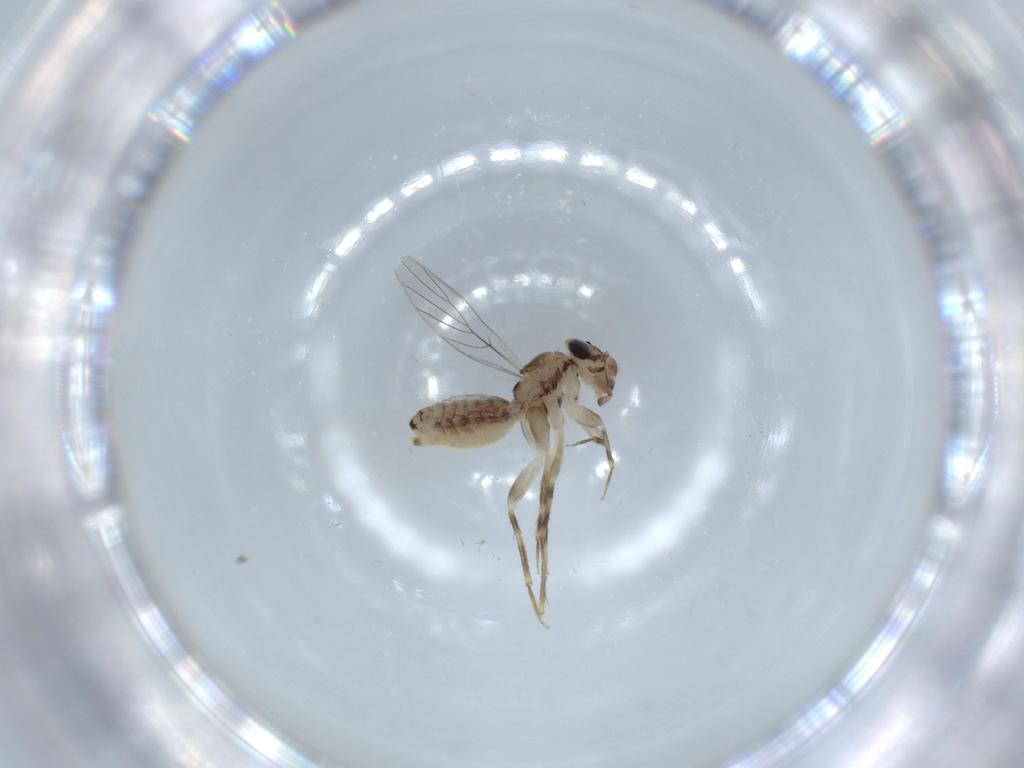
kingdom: Animalia
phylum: Arthropoda
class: Insecta
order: Psocodea
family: Lepidopsocidae
